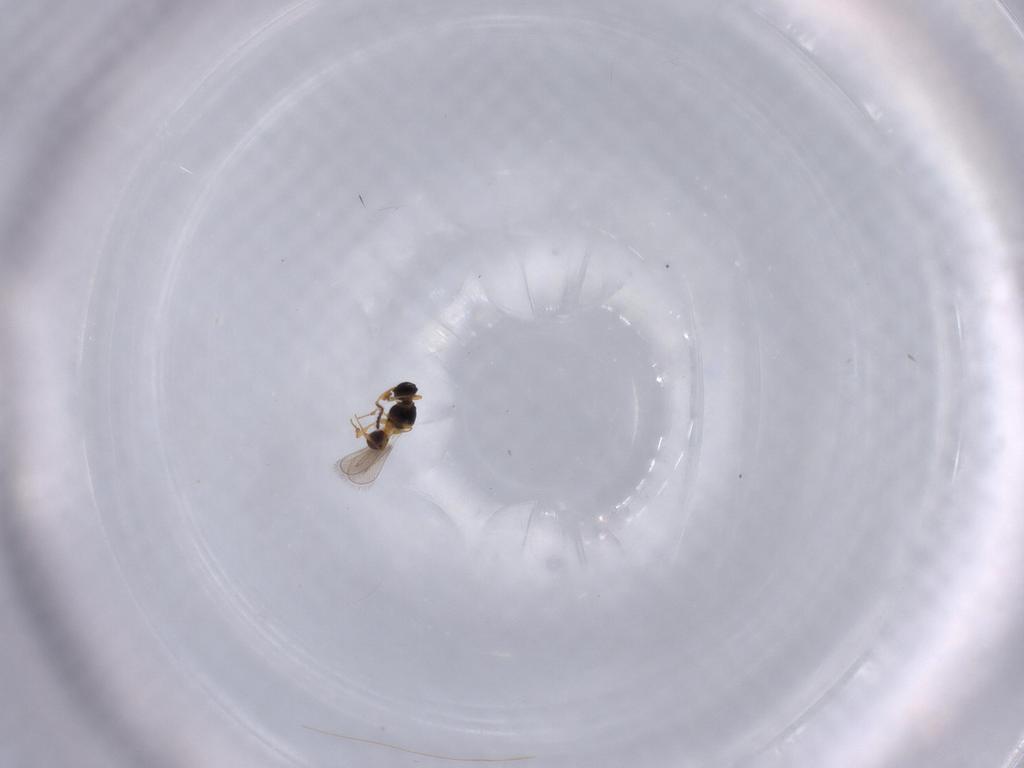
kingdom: Animalia
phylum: Arthropoda
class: Insecta
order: Hymenoptera
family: Platygastridae
